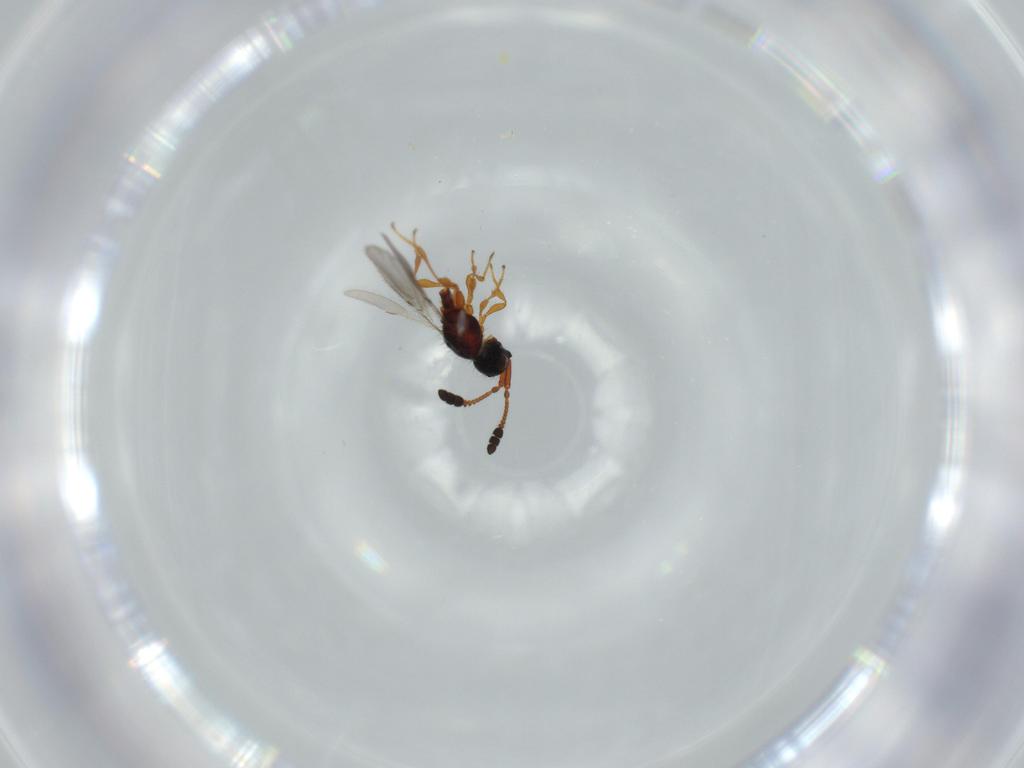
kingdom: Animalia
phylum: Arthropoda
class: Insecta
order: Hymenoptera
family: Diapriidae
